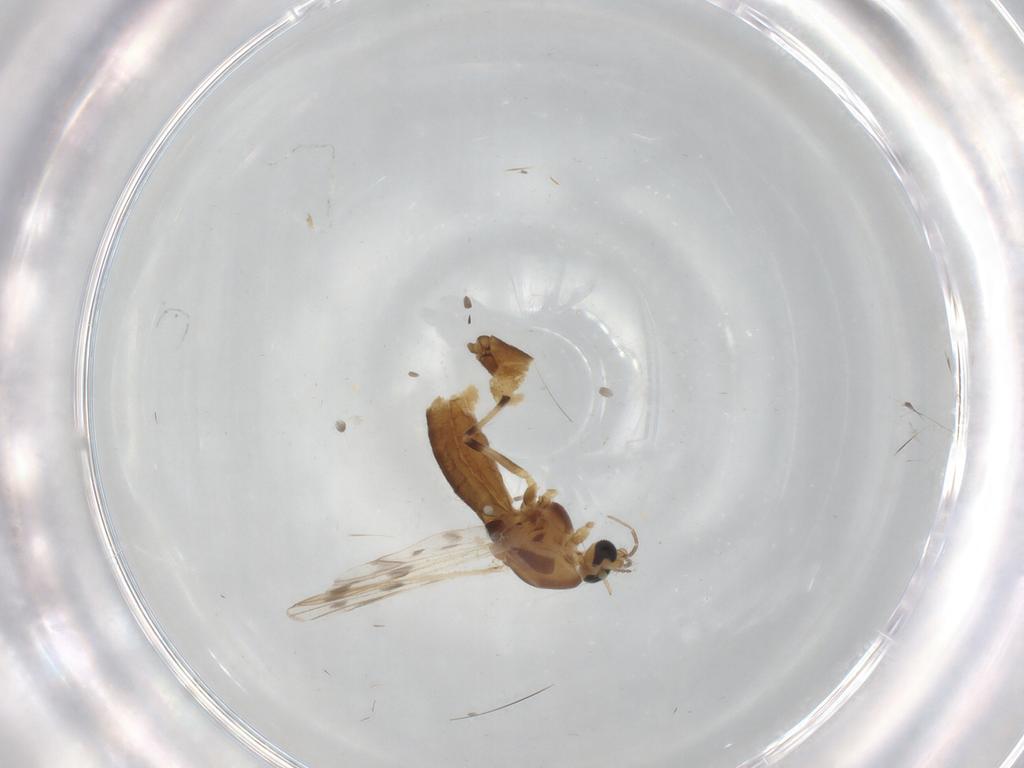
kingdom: Animalia
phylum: Arthropoda
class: Insecta
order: Diptera
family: Chironomidae
